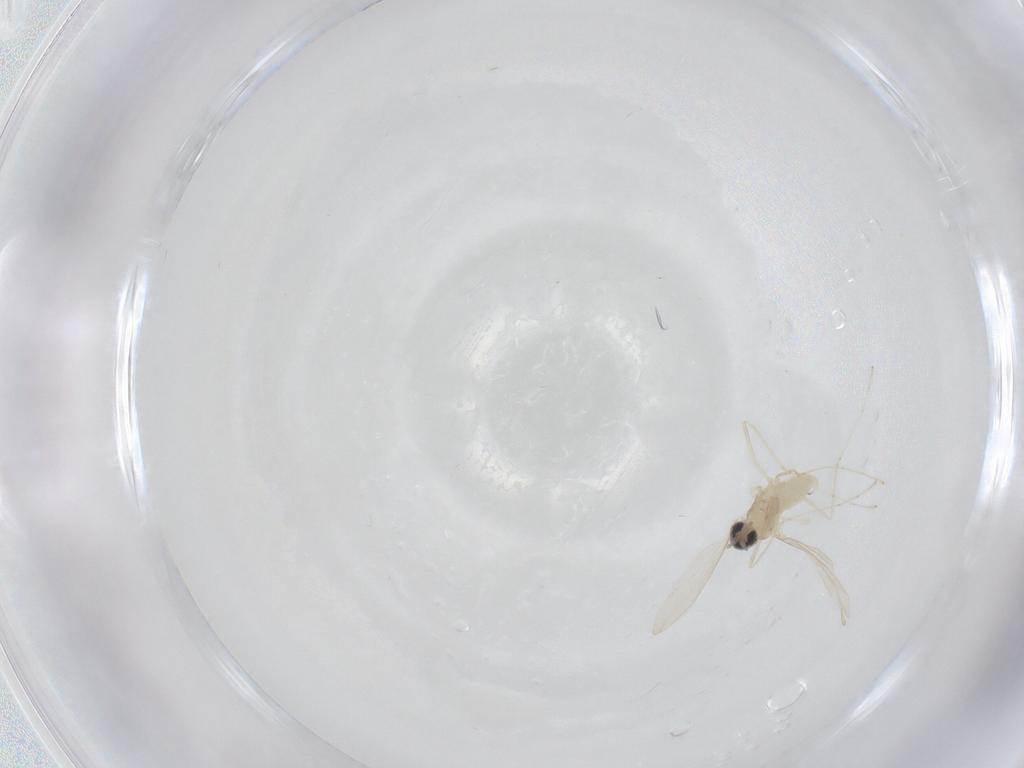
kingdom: Animalia
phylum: Arthropoda
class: Insecta
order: Diptera
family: Cecidomyiidae
